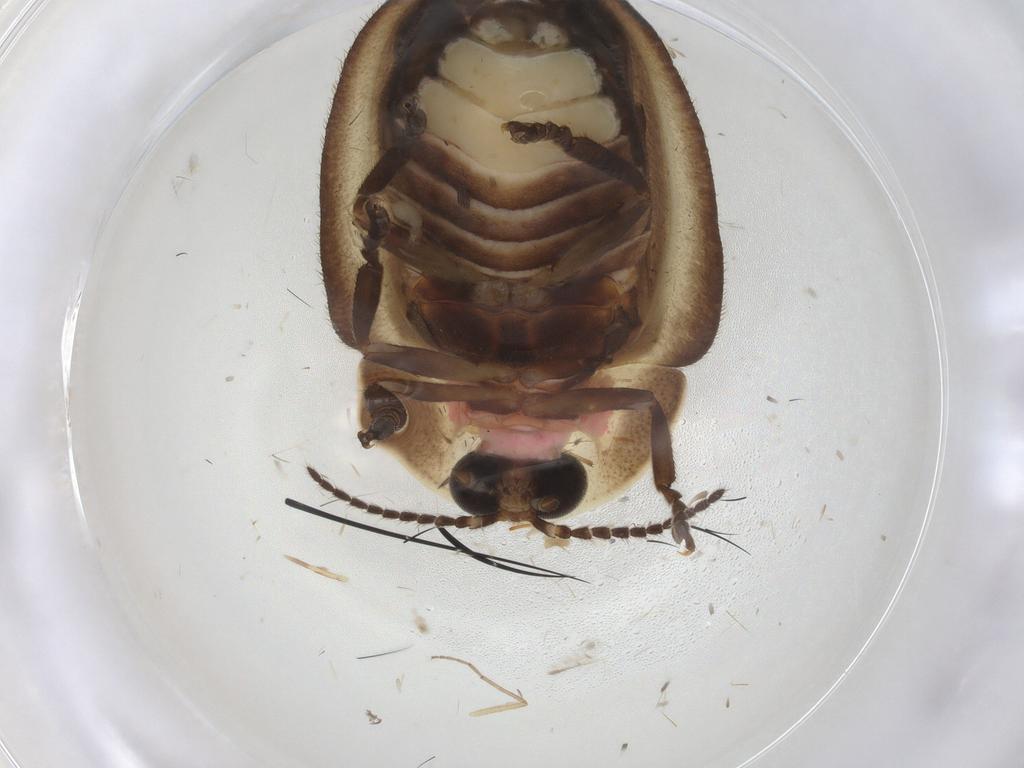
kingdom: Animalia
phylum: Arthropoda
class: Insecta
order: Coleoptera
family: Lampyridae
